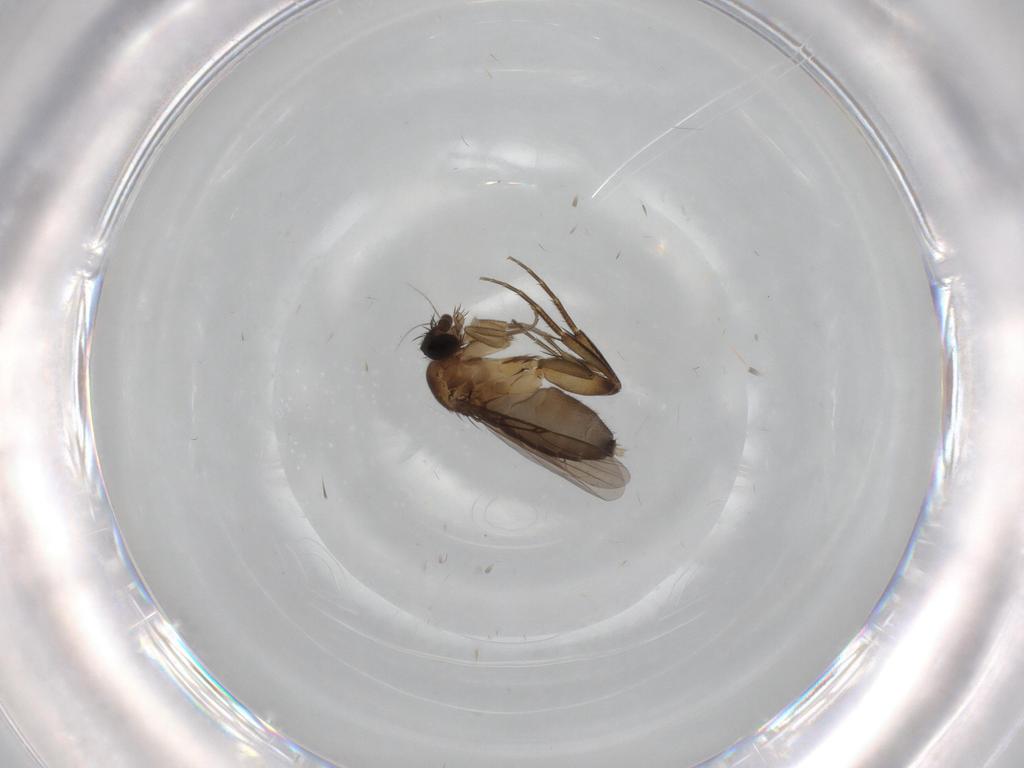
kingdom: Animalia
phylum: Arthropoda
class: Insecta
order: Diptera
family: Phoridae
